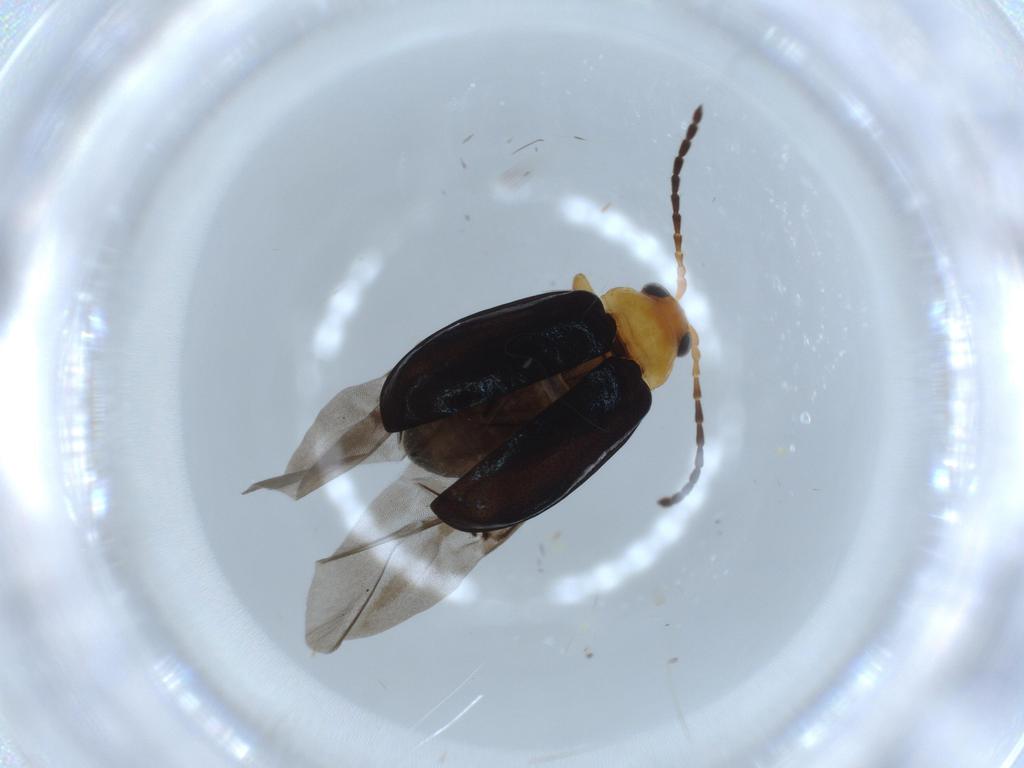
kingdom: Animalia
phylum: Arthropoda
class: Insecta
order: Coleoptera
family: Chrysomelidae
